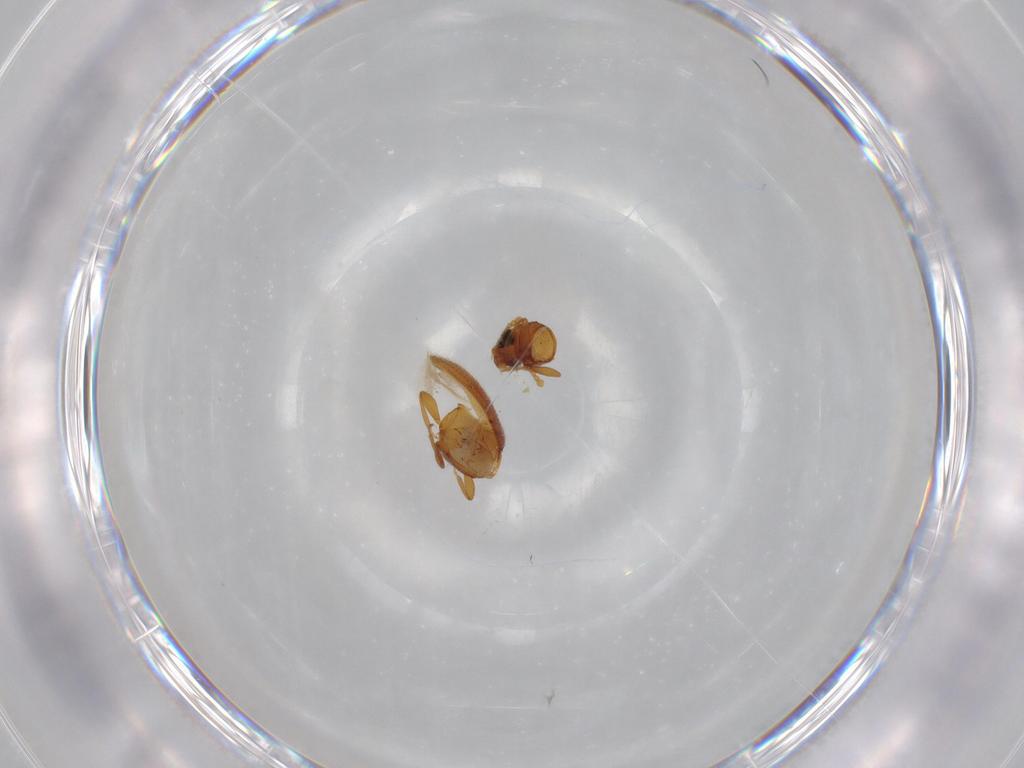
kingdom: Animalia
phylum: Arthropoda
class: Insecta
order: Coleoptera
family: Latridiidae
